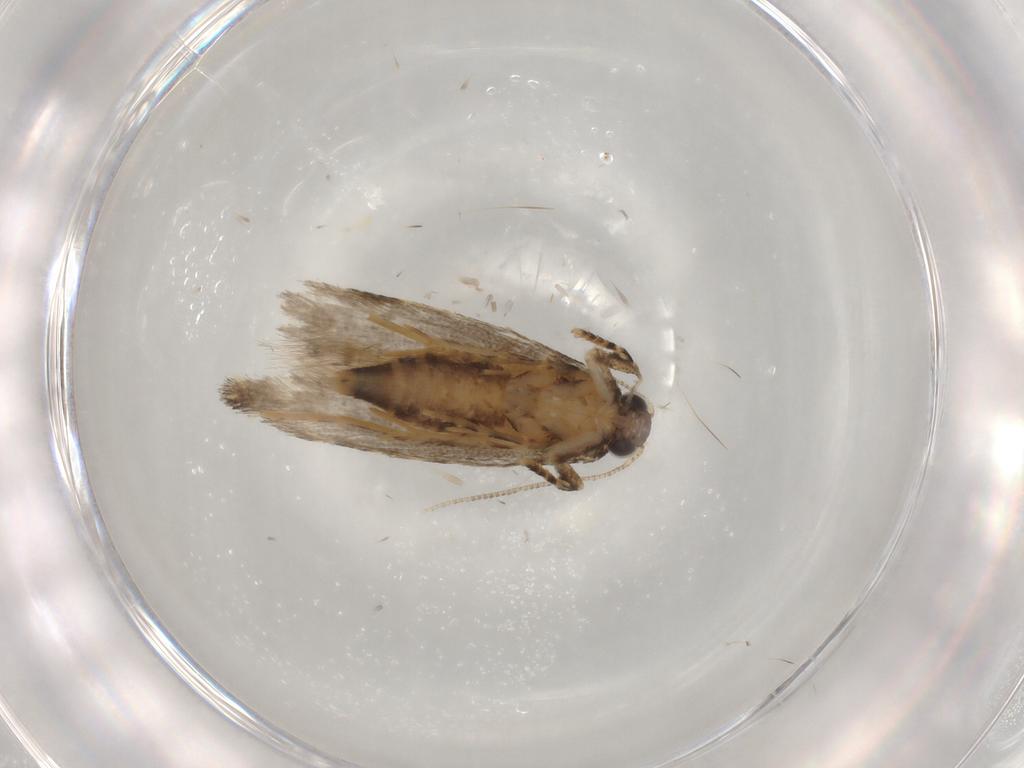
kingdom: Animalia
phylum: Arthropoda
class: Insecta
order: Lepidoptera
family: Tineidae
